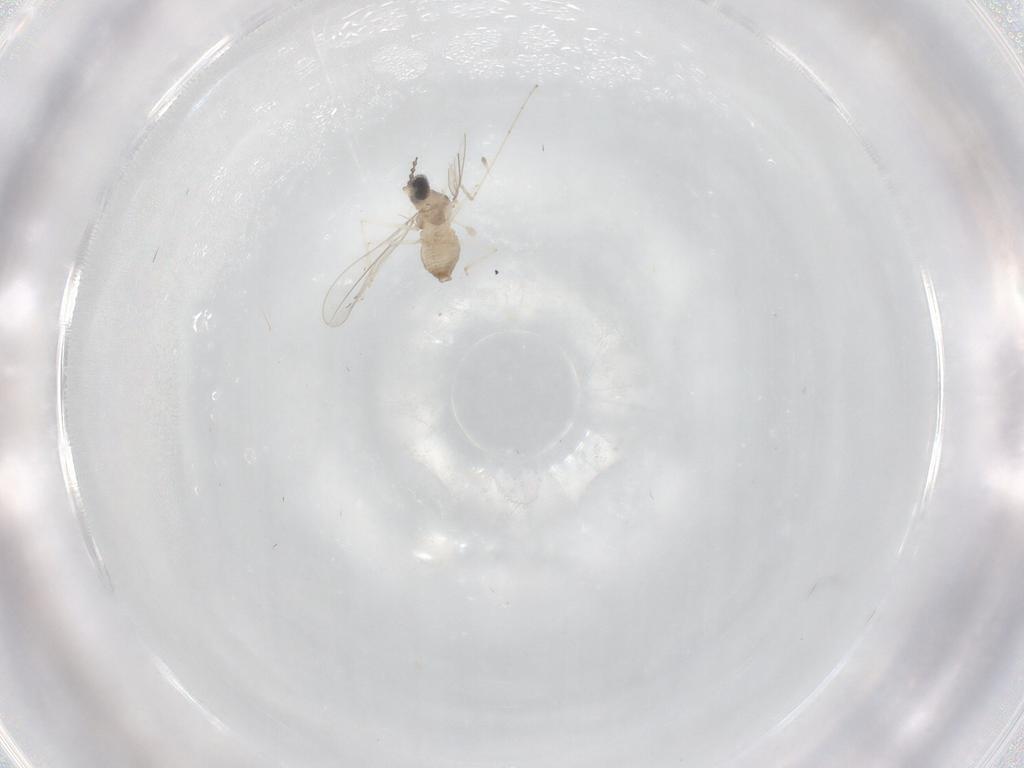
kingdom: Animalia
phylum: Arthropoda
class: Insecta
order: Diptera
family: Cecidomyiidae
